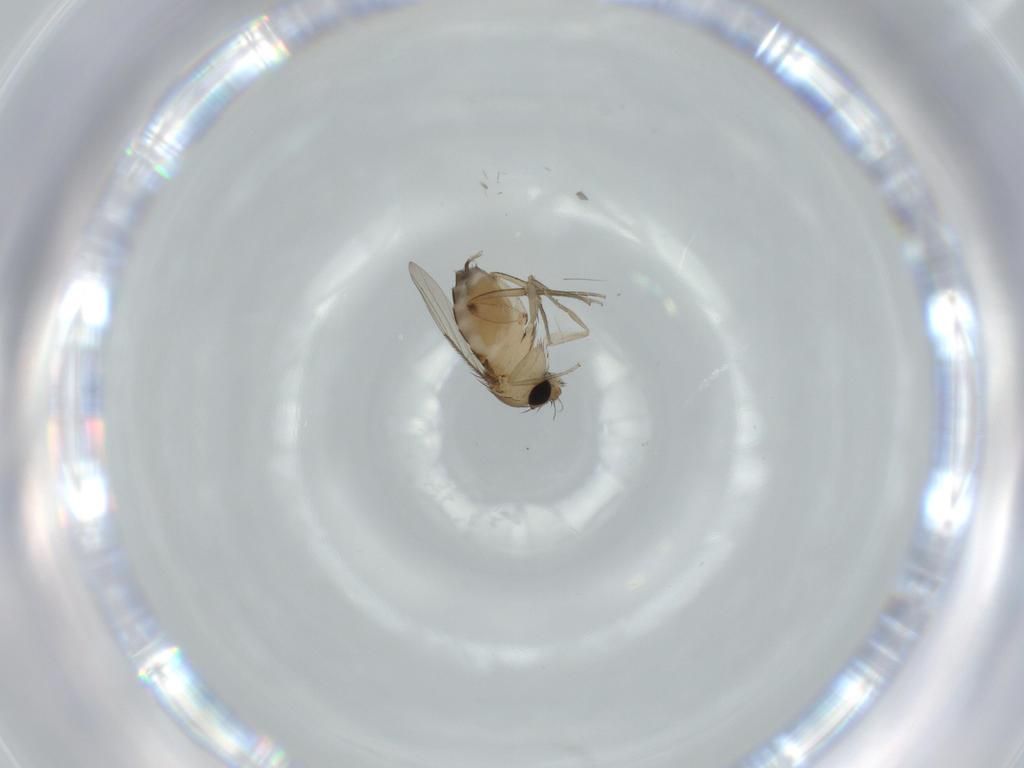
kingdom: Animalia
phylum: Arthropoda
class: Insecta
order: Diptera
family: Phoridae
